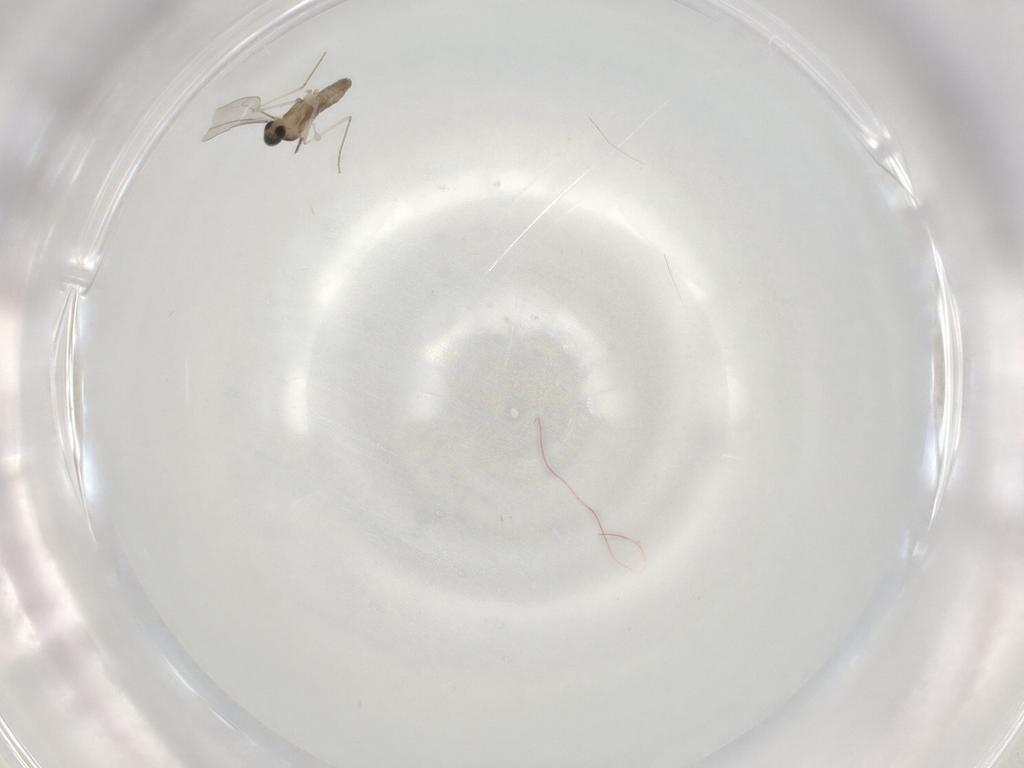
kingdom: Animalia
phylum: Arthropoda
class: Insecta
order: Diptera
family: Cecidomyiidae
